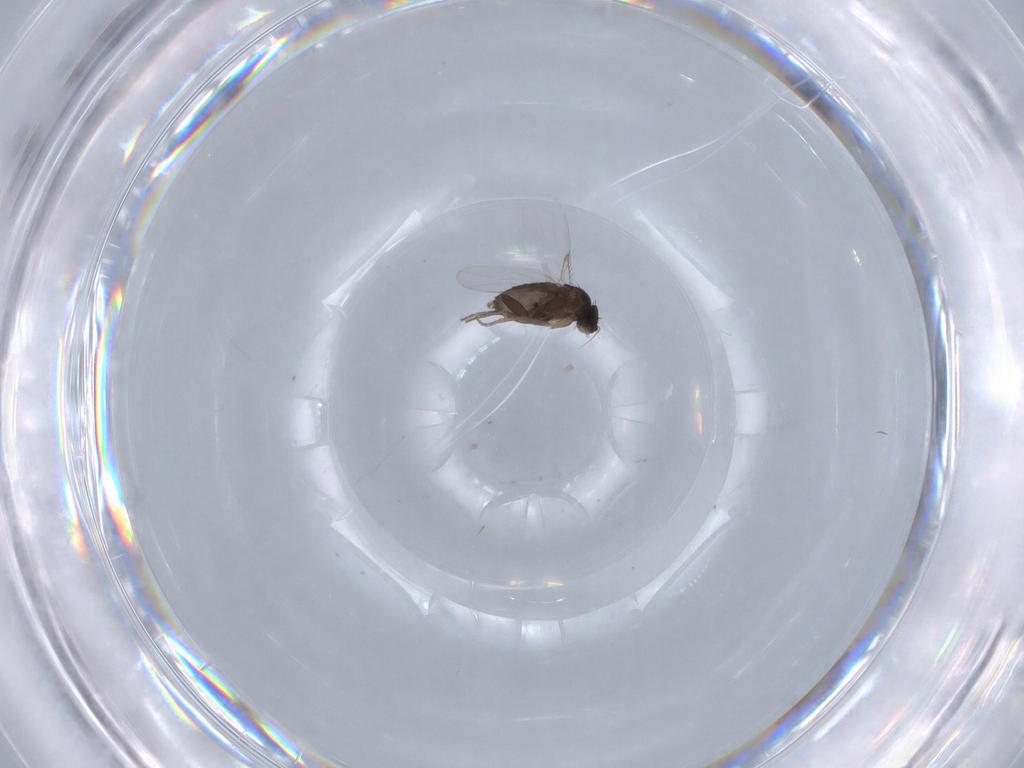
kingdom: Animalia
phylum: Arthropoda
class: Insecta
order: Diptera
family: Phoridae
